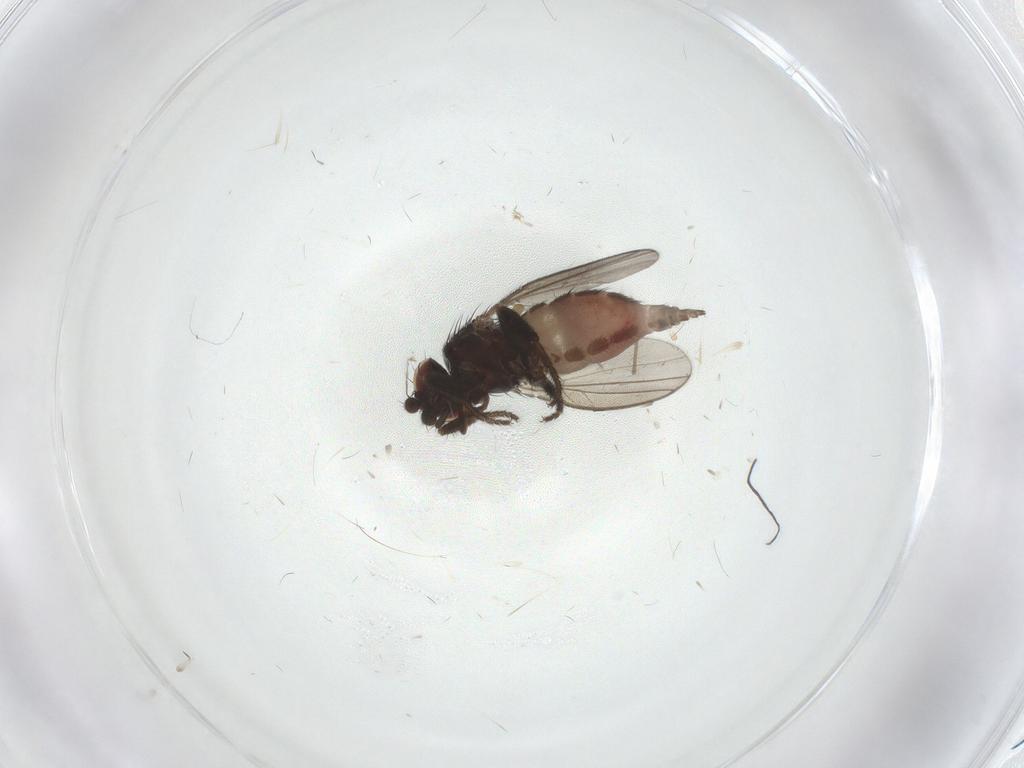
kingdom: Animalia
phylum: Arthropoda
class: Insecta
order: Diptera
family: Milichiidae
